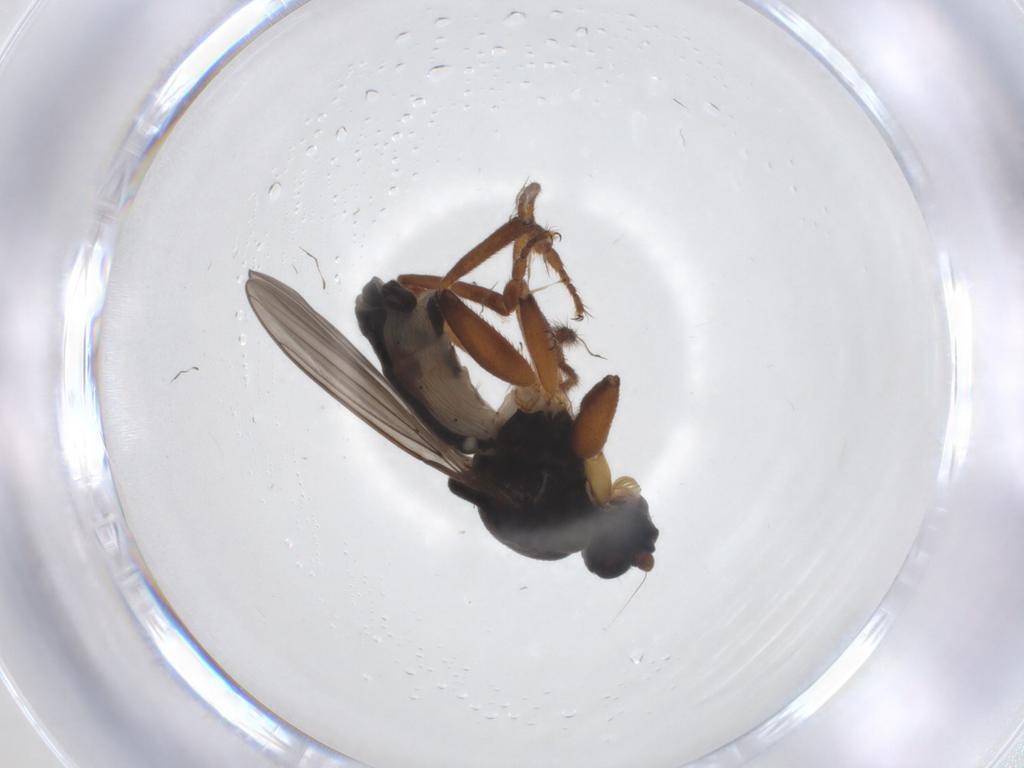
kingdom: Animalia
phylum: Arthropoda
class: Insecta
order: Diptera
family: Sphaeroceridae
